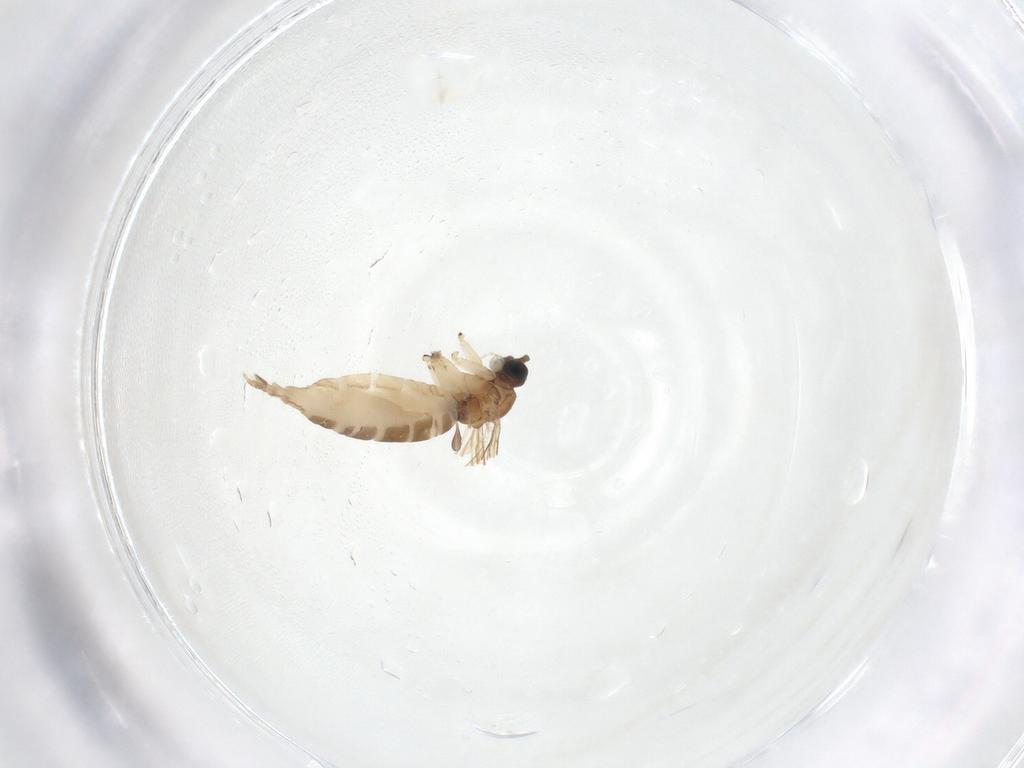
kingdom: Animalia
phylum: Arthropoda
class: Insecta
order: Diptera
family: Sciaridae
